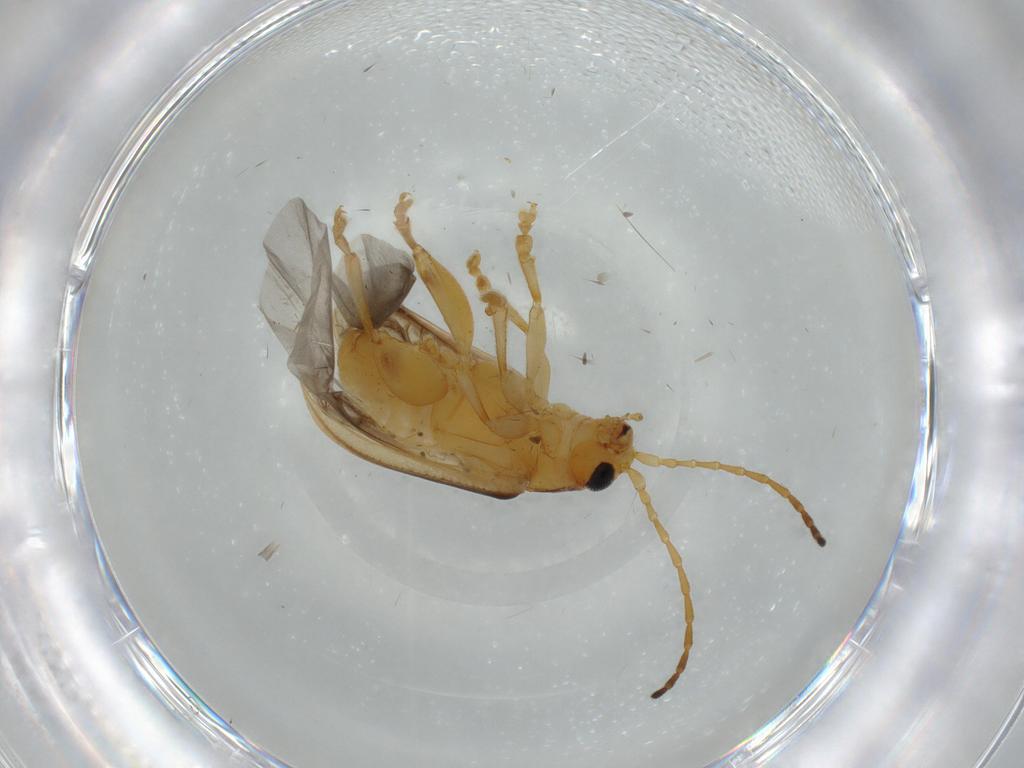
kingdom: Animalia
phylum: Arthropoda
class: Insecta
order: Coleoptera
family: Chrysomelidae
